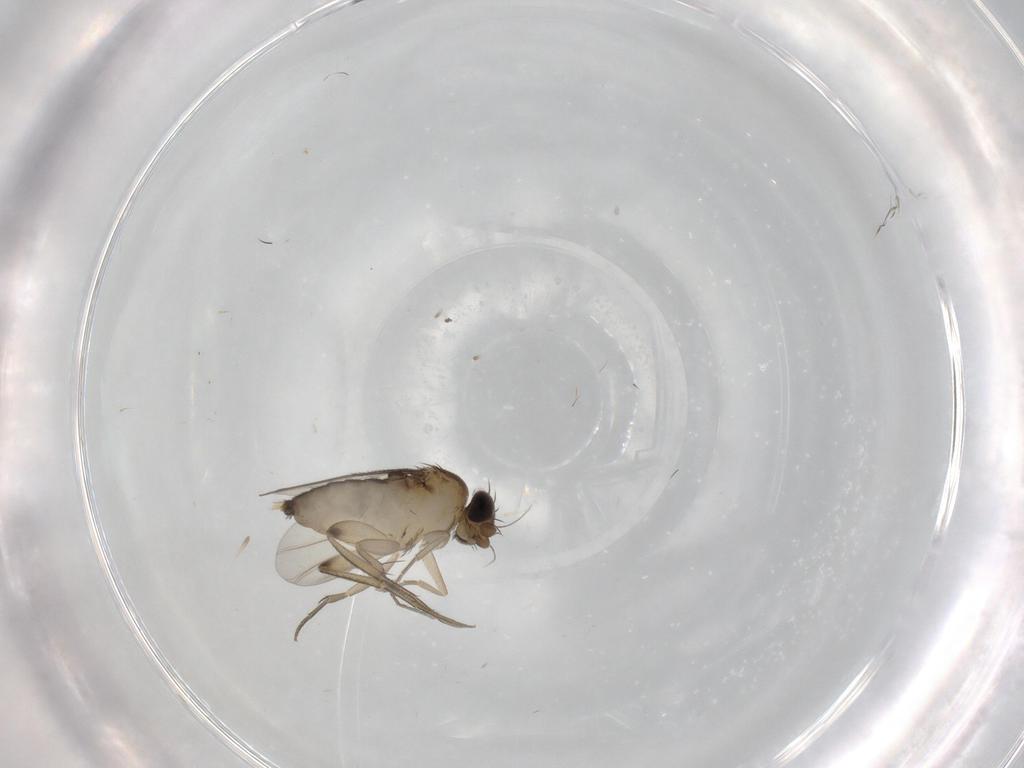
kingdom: Animalia
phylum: Arthropoda
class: Insecta
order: Diptera
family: Phoridae
